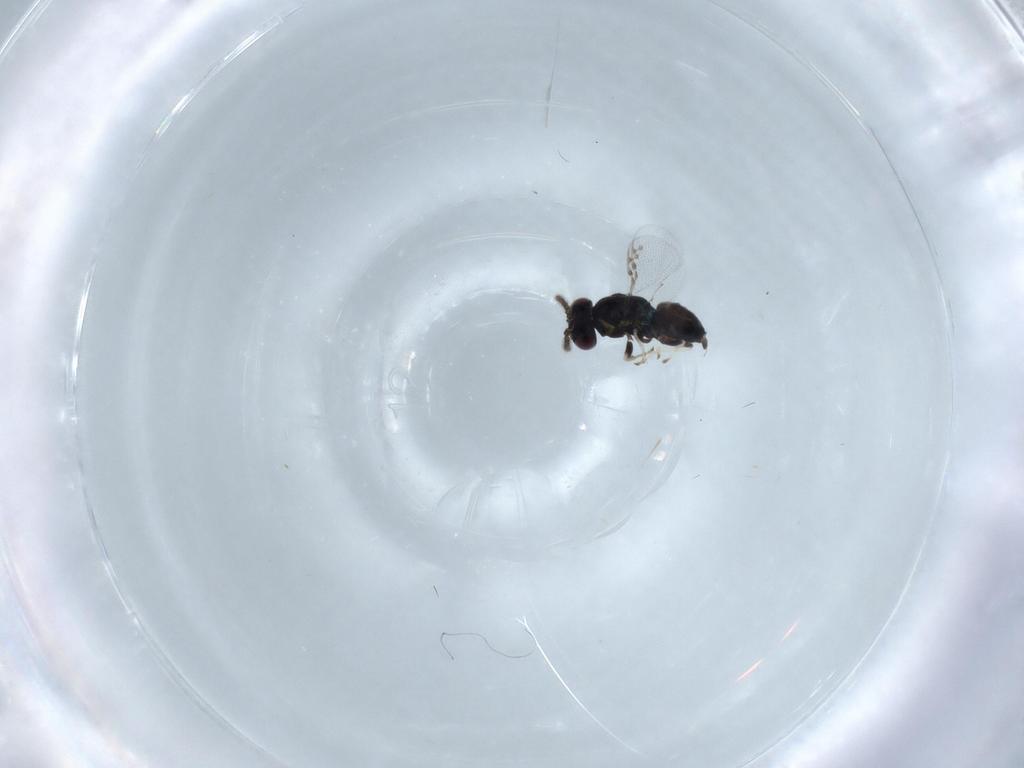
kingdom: Animalia
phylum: Arthropoda
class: Insecta
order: Hymenoptera
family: Pirenidae
